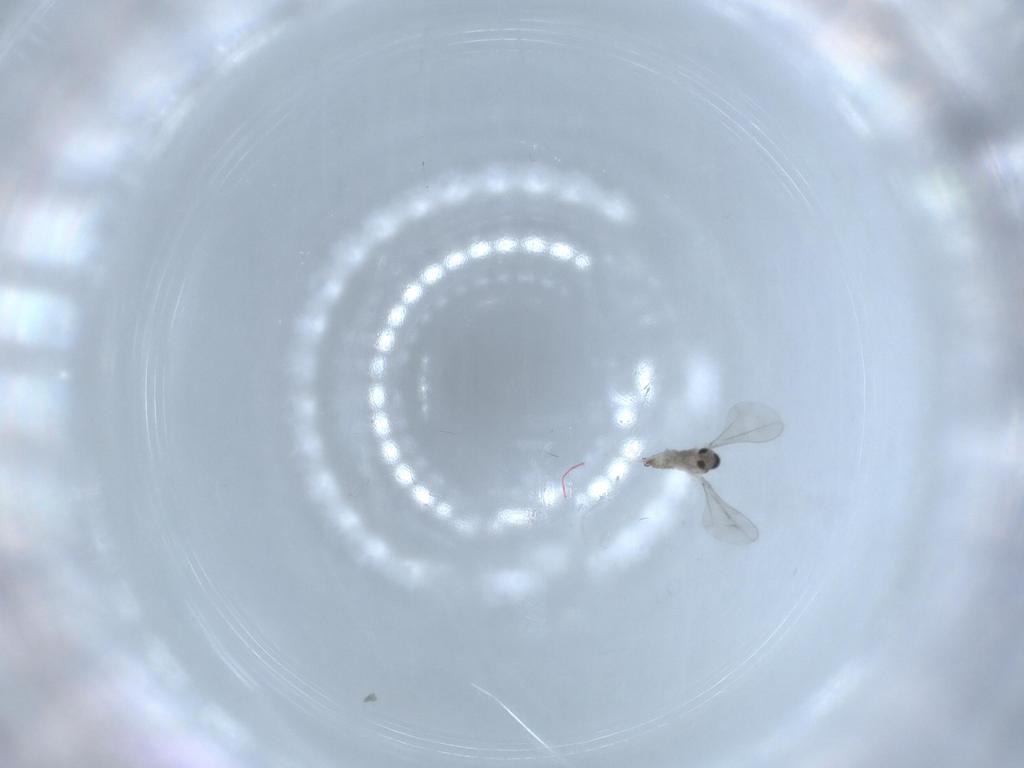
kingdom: Animalia
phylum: Arthropoda
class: Insecta
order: Diptera
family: Cecidomyiidae
